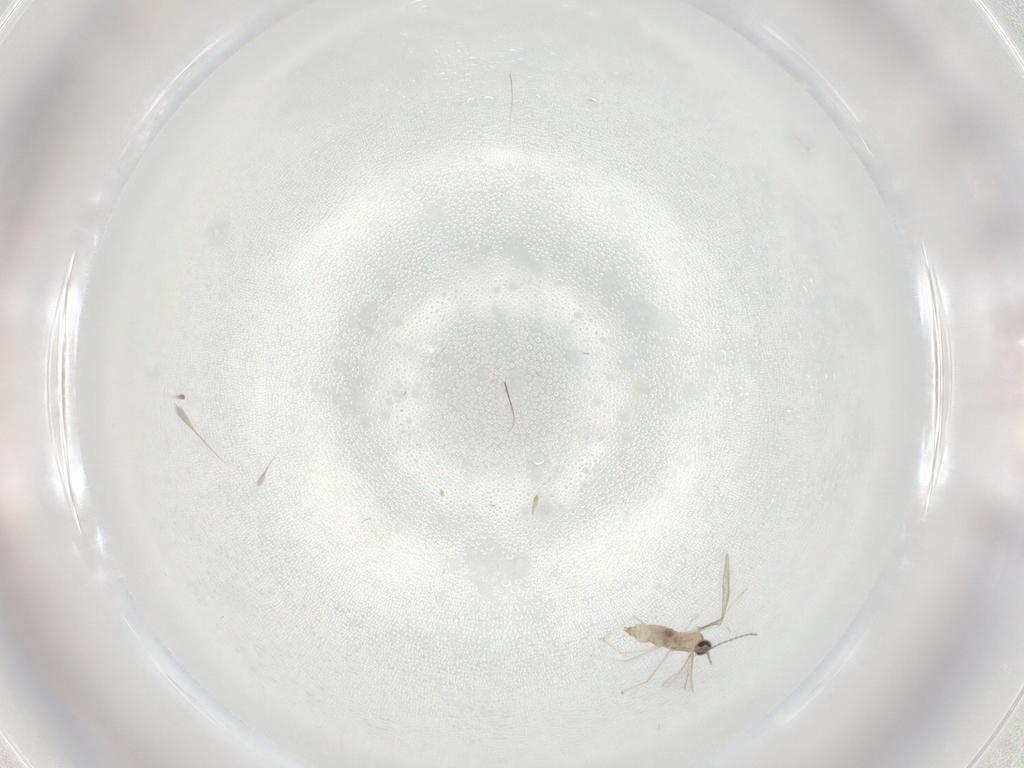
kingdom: Animalia
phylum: Arthropoda
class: Insecta
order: Diptera
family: Cecidomyiidae
